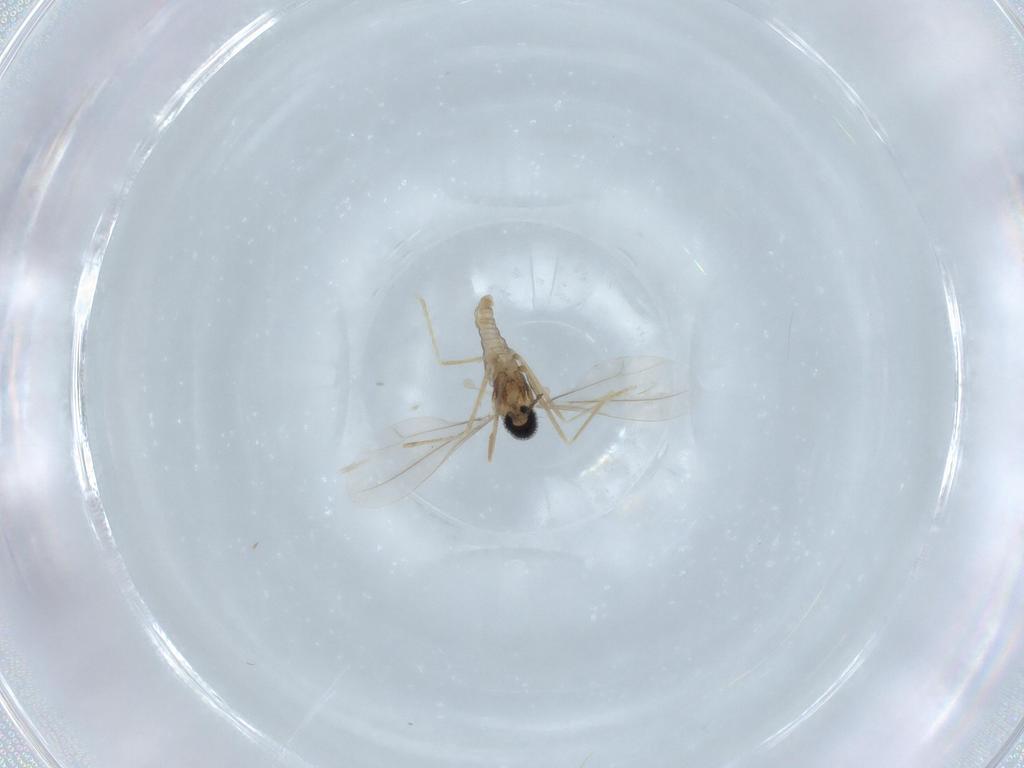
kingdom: Animalia
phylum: Arthropoda
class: Insecta
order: Diptera
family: Cecidomyiidae
